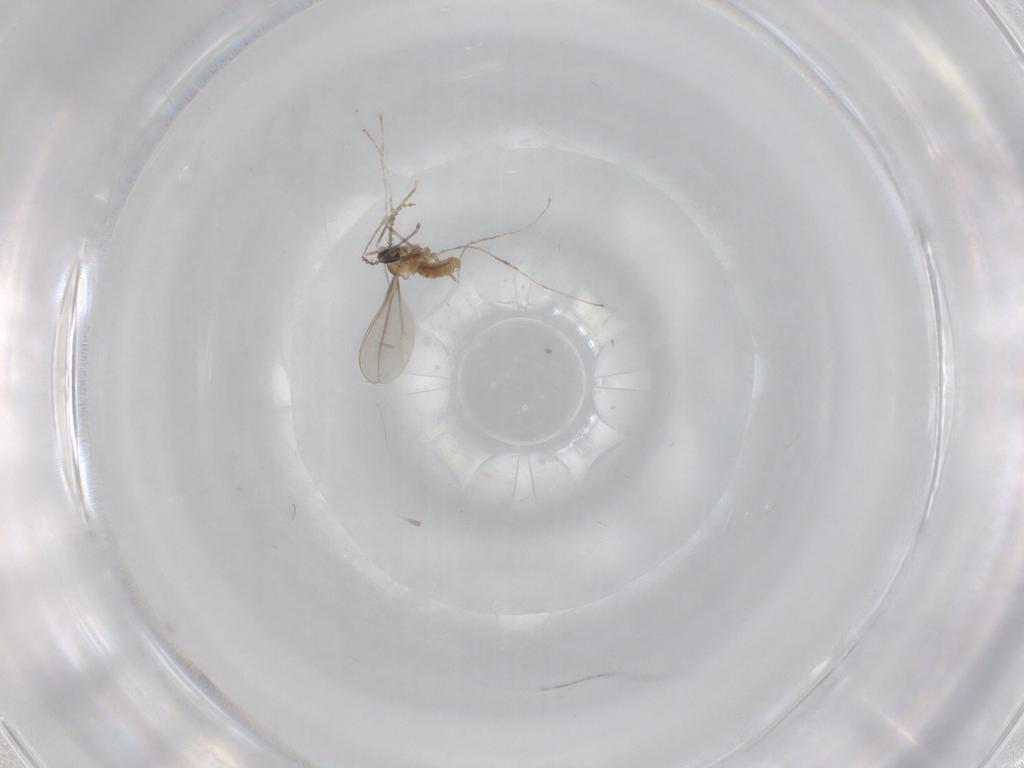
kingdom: Animalia
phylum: Arthropoda
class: Insecta
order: Diptera
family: Cecidomyiidae
